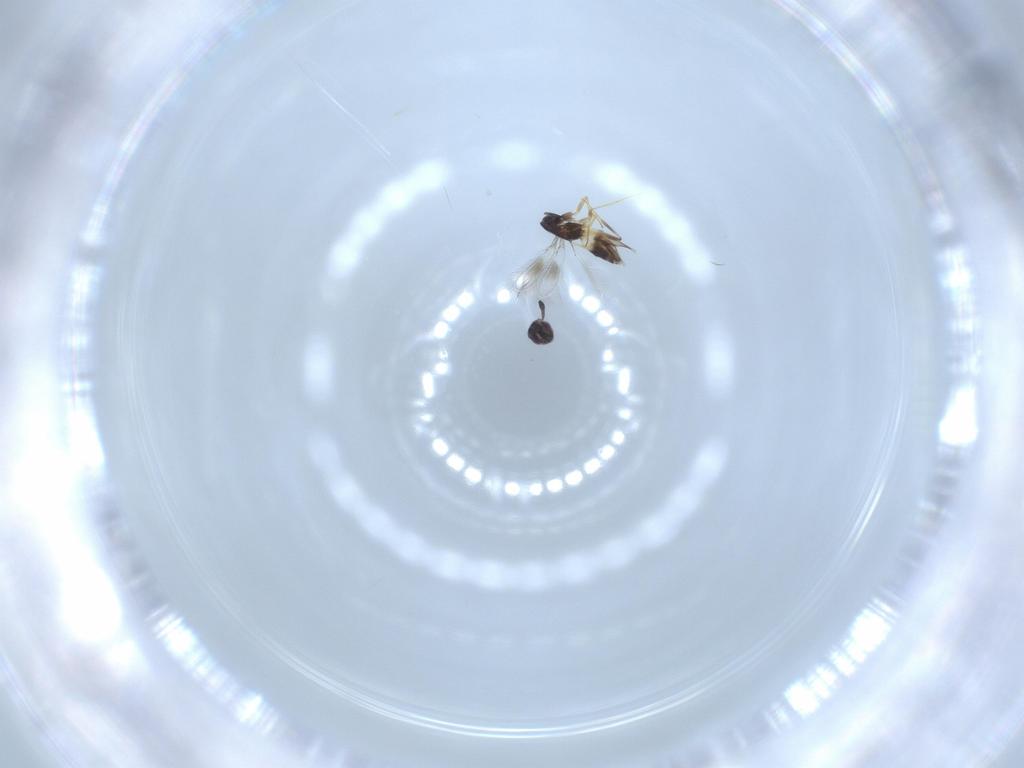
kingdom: Animalia
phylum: Arthropoda
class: Insecta
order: Hymenoptera
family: Mymaridae
